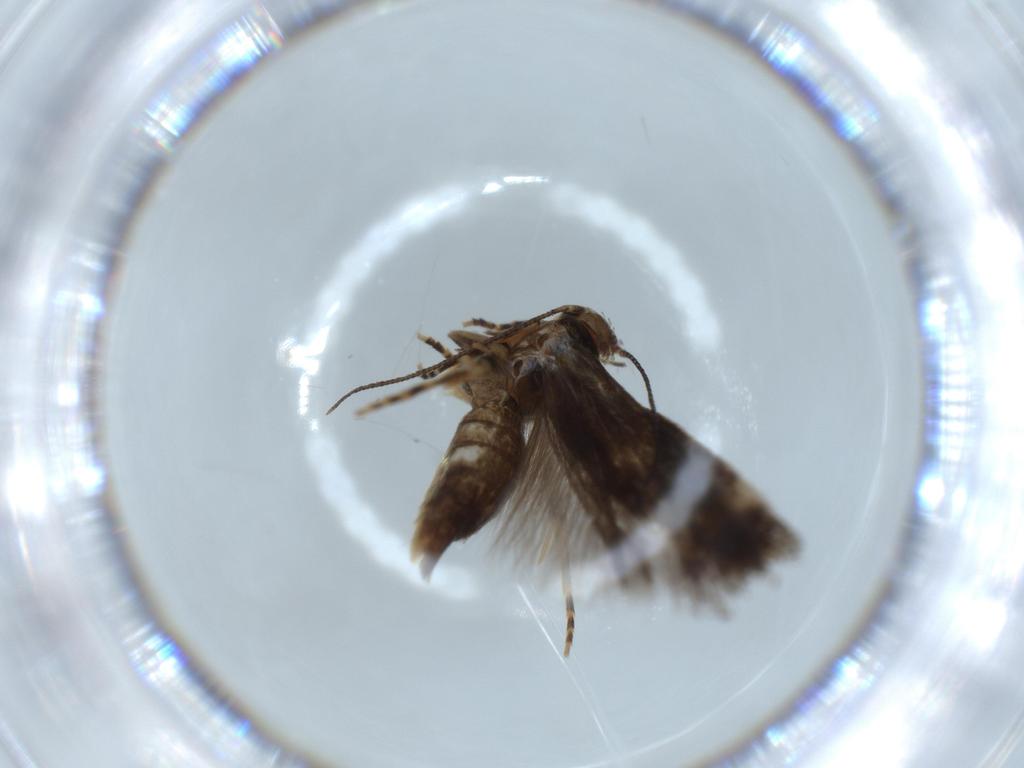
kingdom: Animalia
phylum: Arthropoda
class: Insecta
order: Lepidoptera
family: Elachistidae
